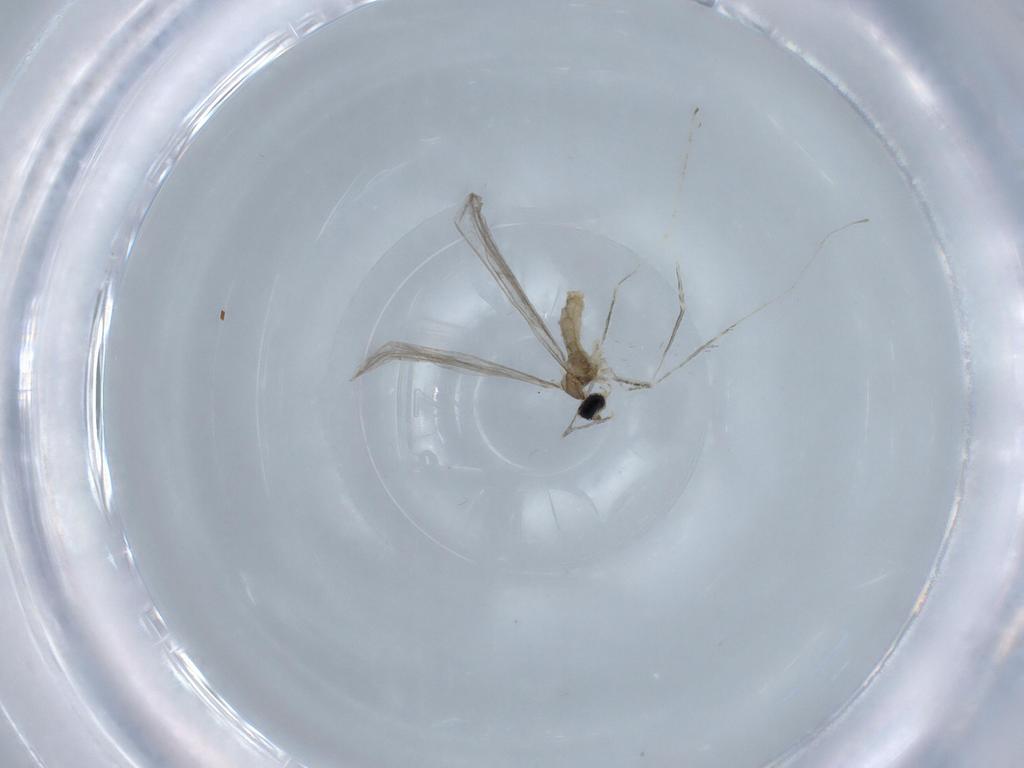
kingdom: Animalia
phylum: Arthropoda
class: Insecta
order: Diptera
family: Cecidomyiidae
